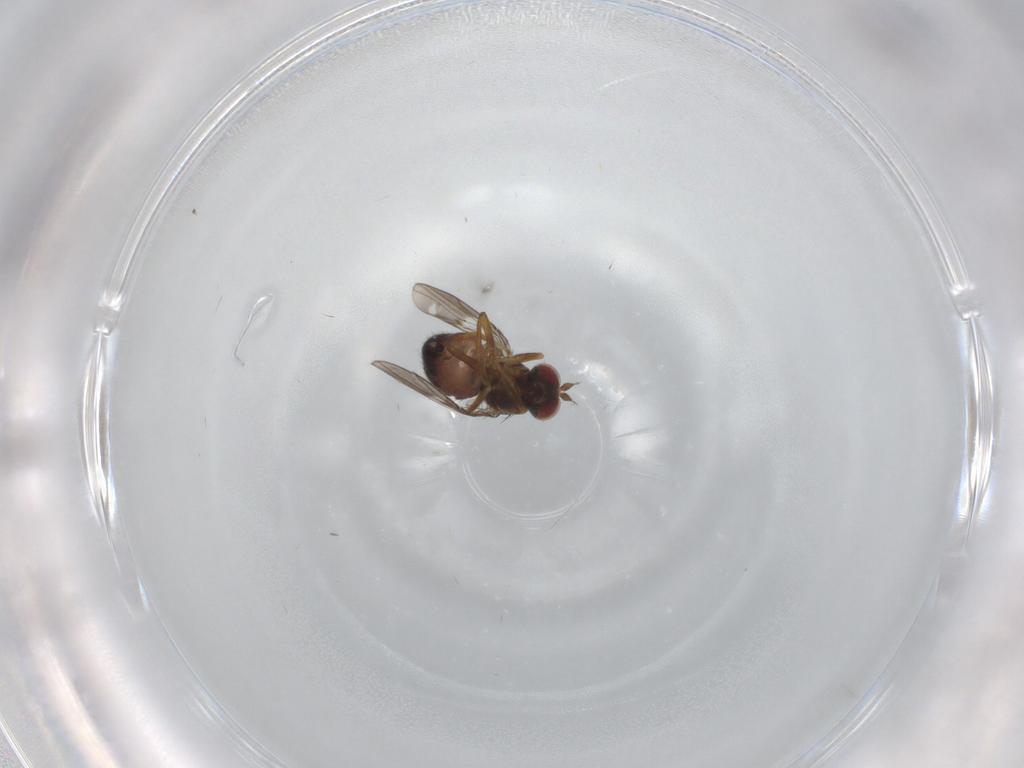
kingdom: Animalia
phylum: Arthropoda
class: Insecta
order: Diptera
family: Ephydridae
